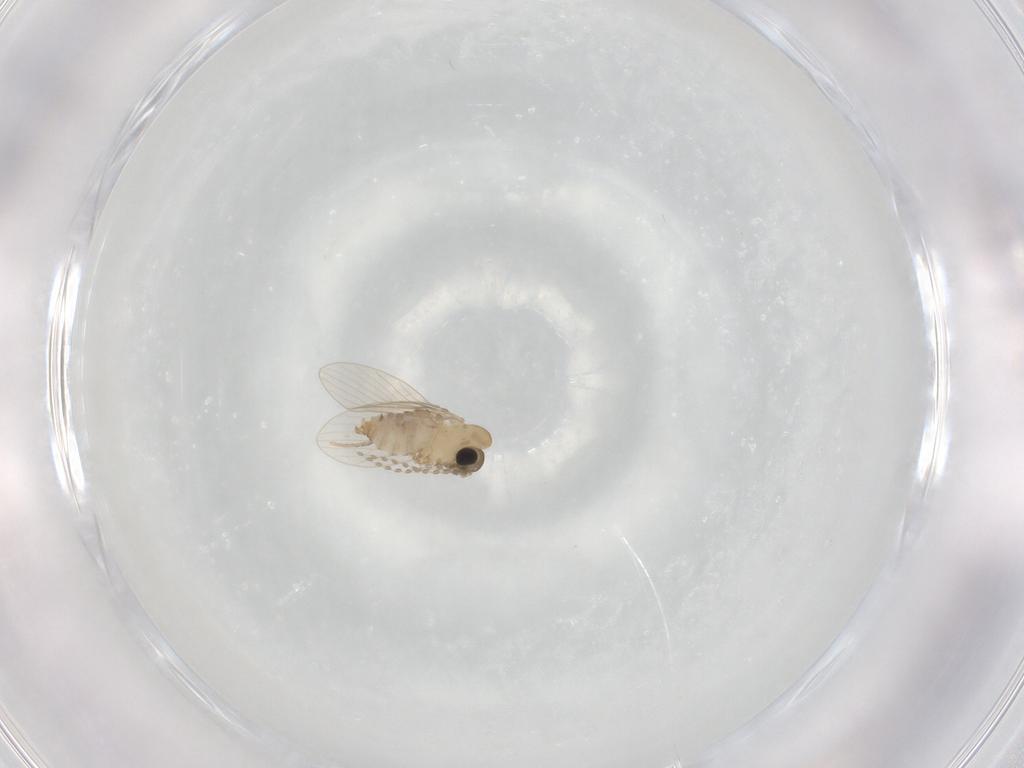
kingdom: Animalia
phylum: Arthropoda
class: Insecta
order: Diptera
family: Psychodidae
